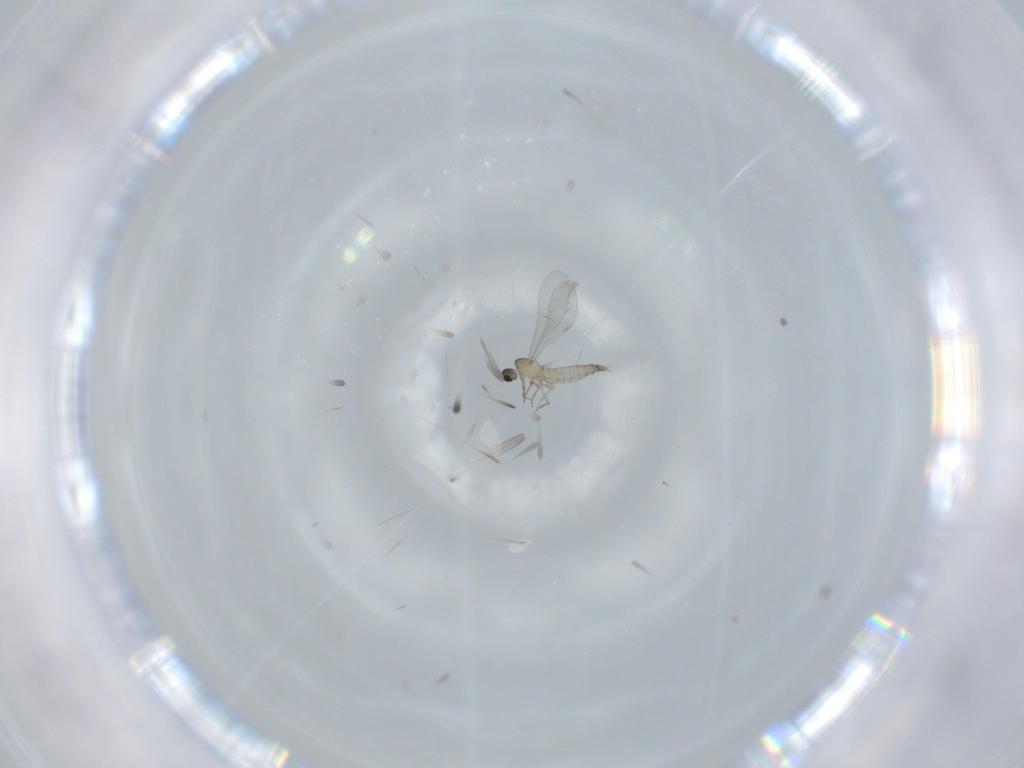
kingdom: Animalia
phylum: Arthropoda
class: Insecta
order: Diptera
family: Cecidomyiidae
